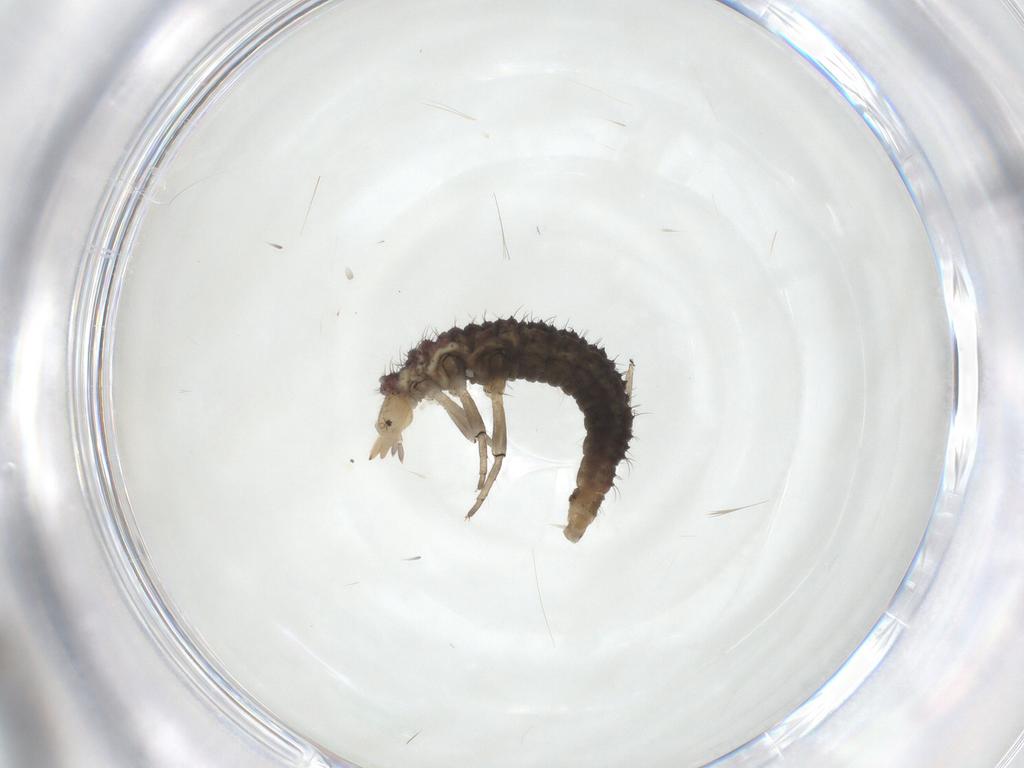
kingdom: Animalia
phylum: Arthropoda
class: Insecta
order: Neuroptera
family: Hemerobiidae
